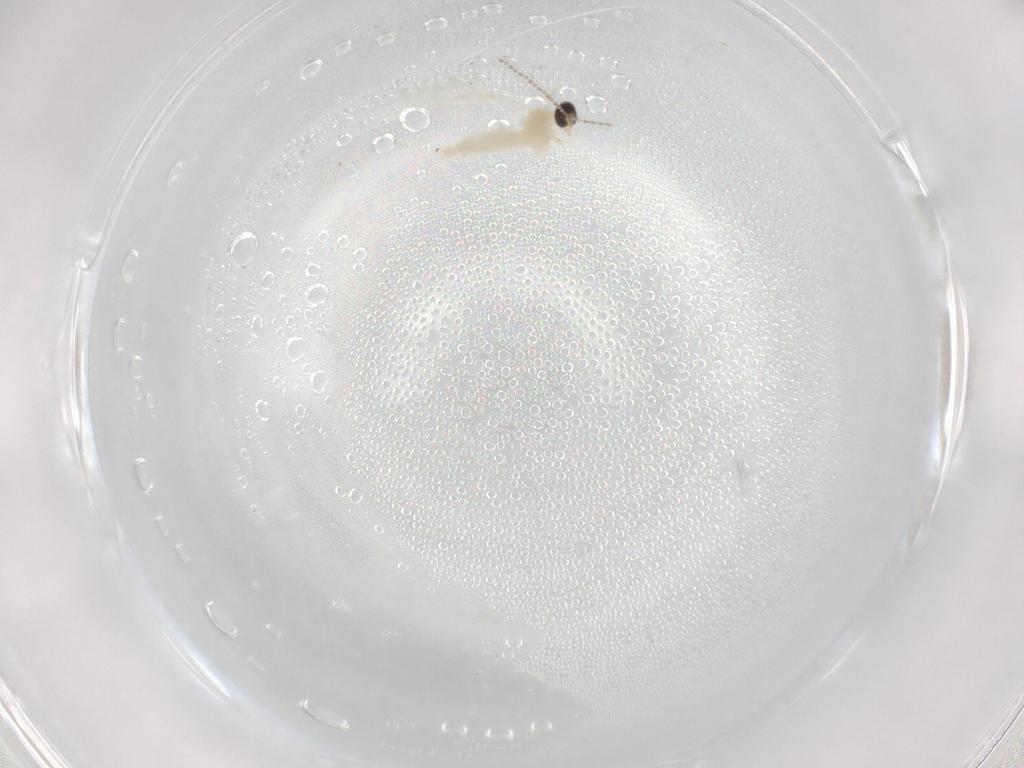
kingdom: Animalia
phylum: Arthropoda
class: Insecta
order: Diptera
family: Cecidomyiidae
